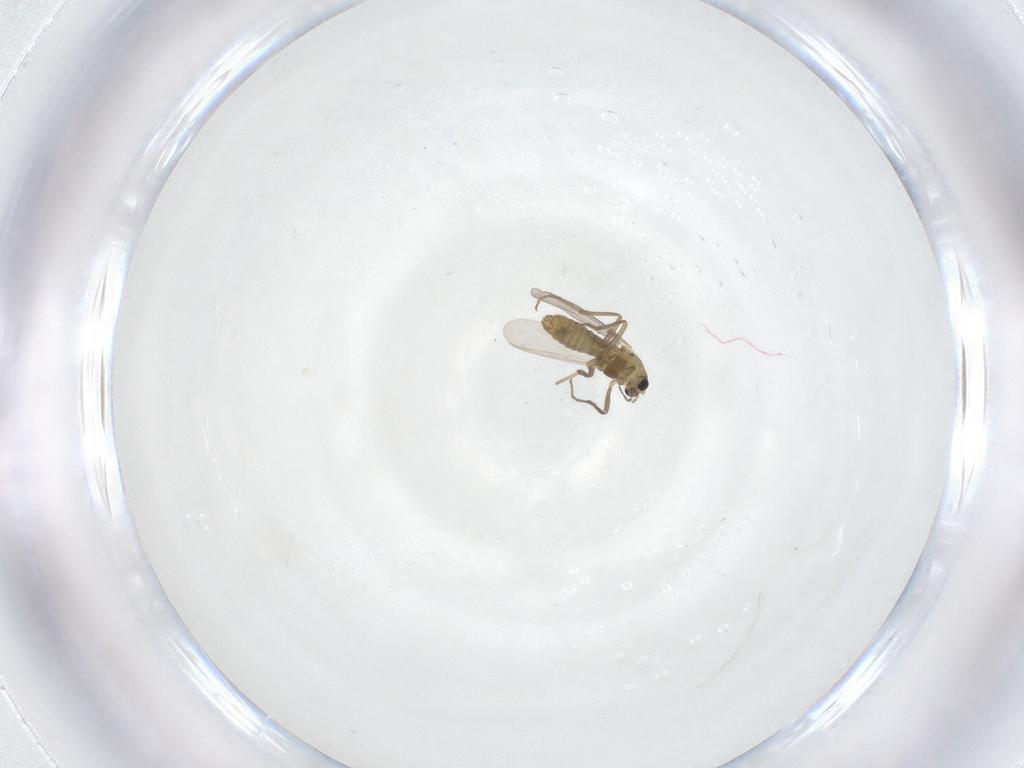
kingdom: Animalia
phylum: Arthropoda
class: Insecta
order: Diptera
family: Chironomidae
